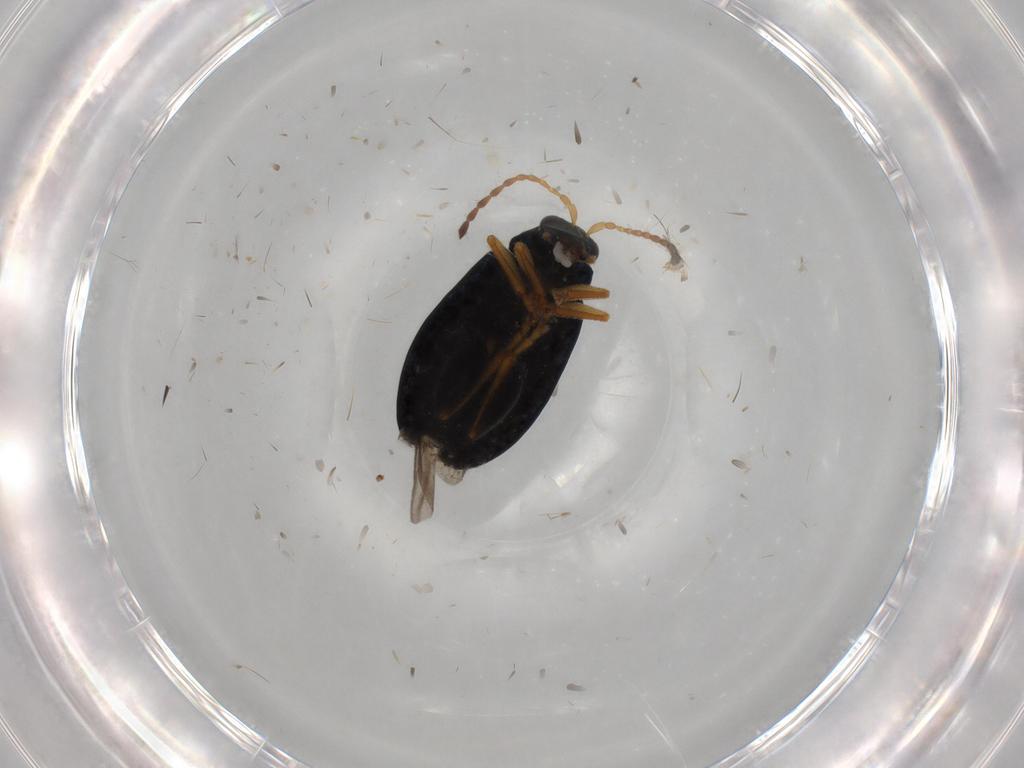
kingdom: Animalia
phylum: Arthropoda
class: Insecta
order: Coleoptera
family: Chrysomelidae
